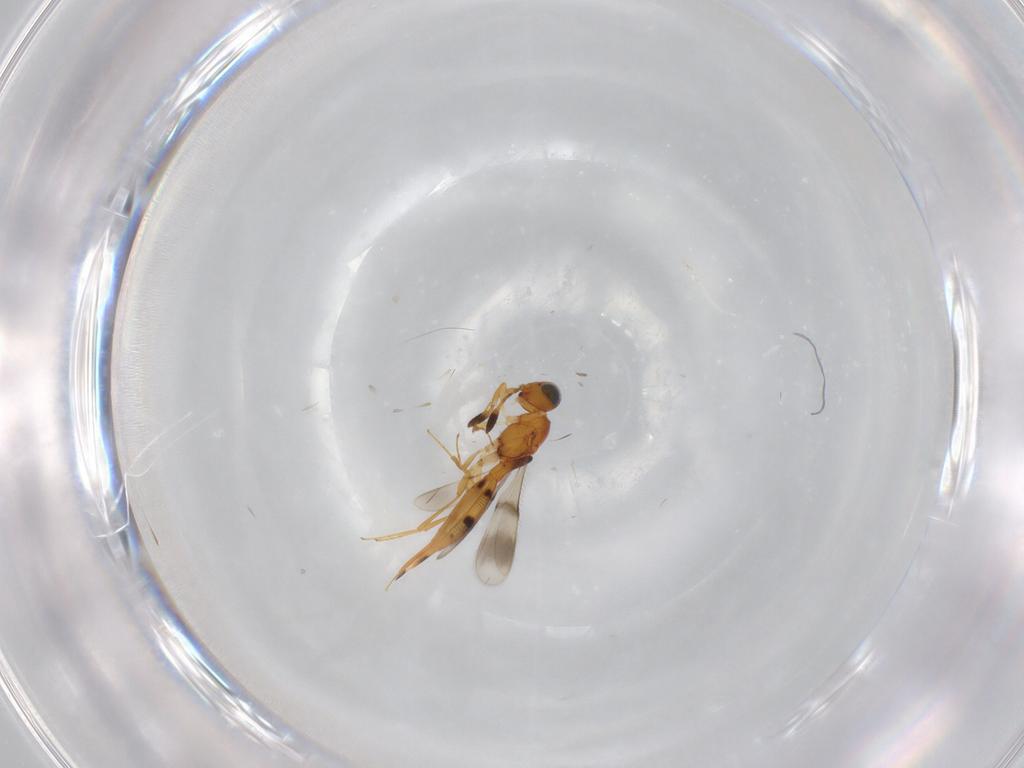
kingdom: Animalia
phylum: Arthropoda
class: Insecta
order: Hymenoptera
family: Scelionidae
